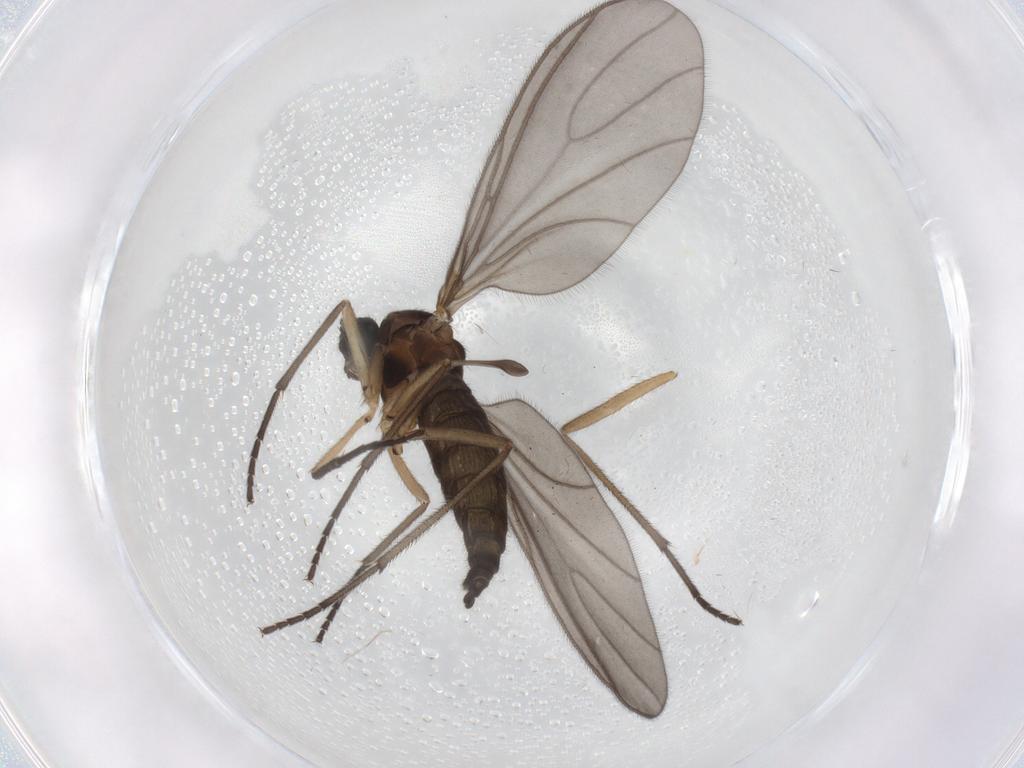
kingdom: Animalia
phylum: Arthropoda
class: Insecta
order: Diptera
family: Sciaridae
